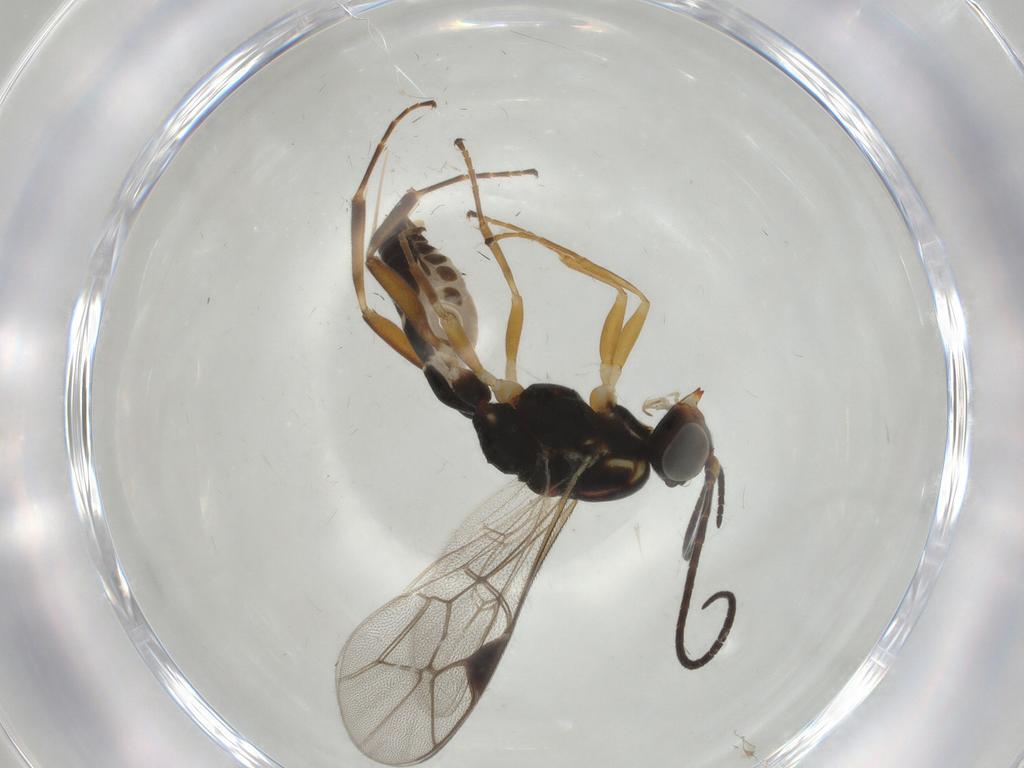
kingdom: Animalia
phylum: Arthropoda
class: Insecta
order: Hymenoptera
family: Ichneumonidae
